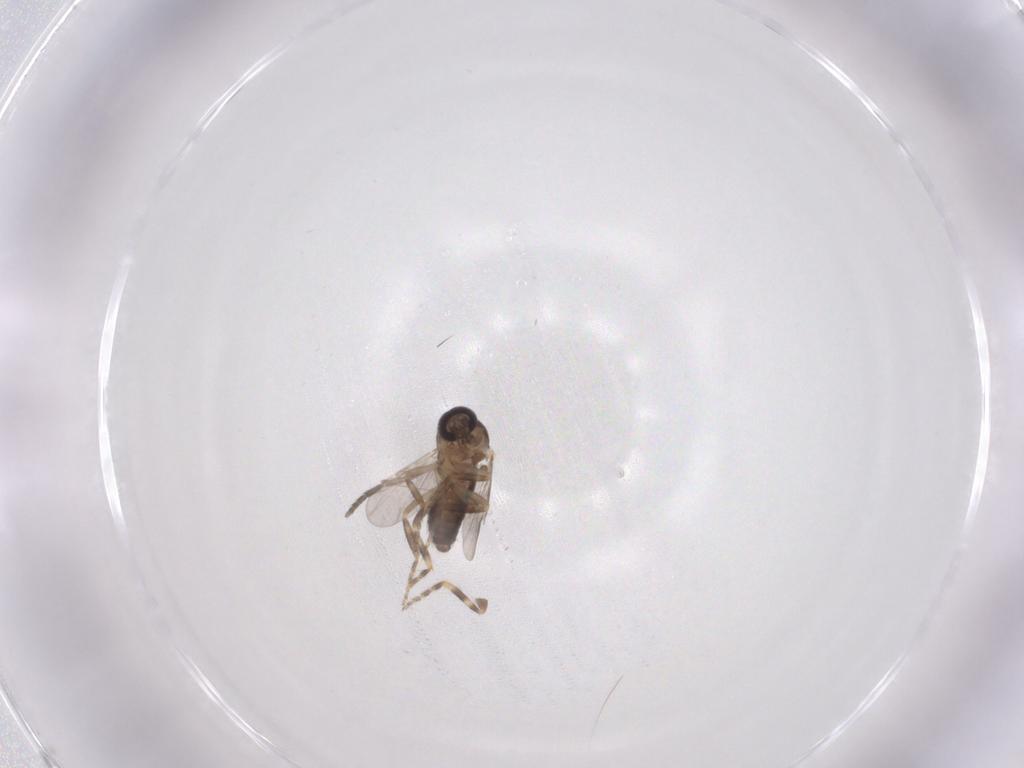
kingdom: Animalia
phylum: Arthropoda
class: Insecta
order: Diptera
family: Ceratopogonidae
